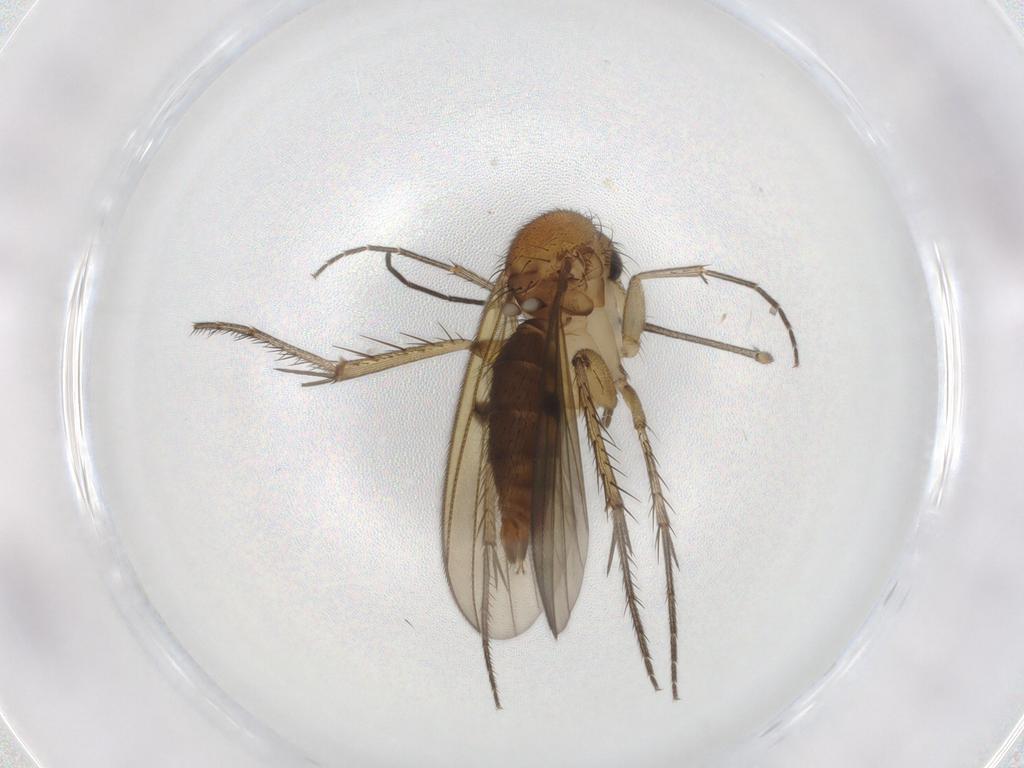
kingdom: Animalia
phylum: Arthropoda
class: Insecta
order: Diptera
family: Mycetophilidae
